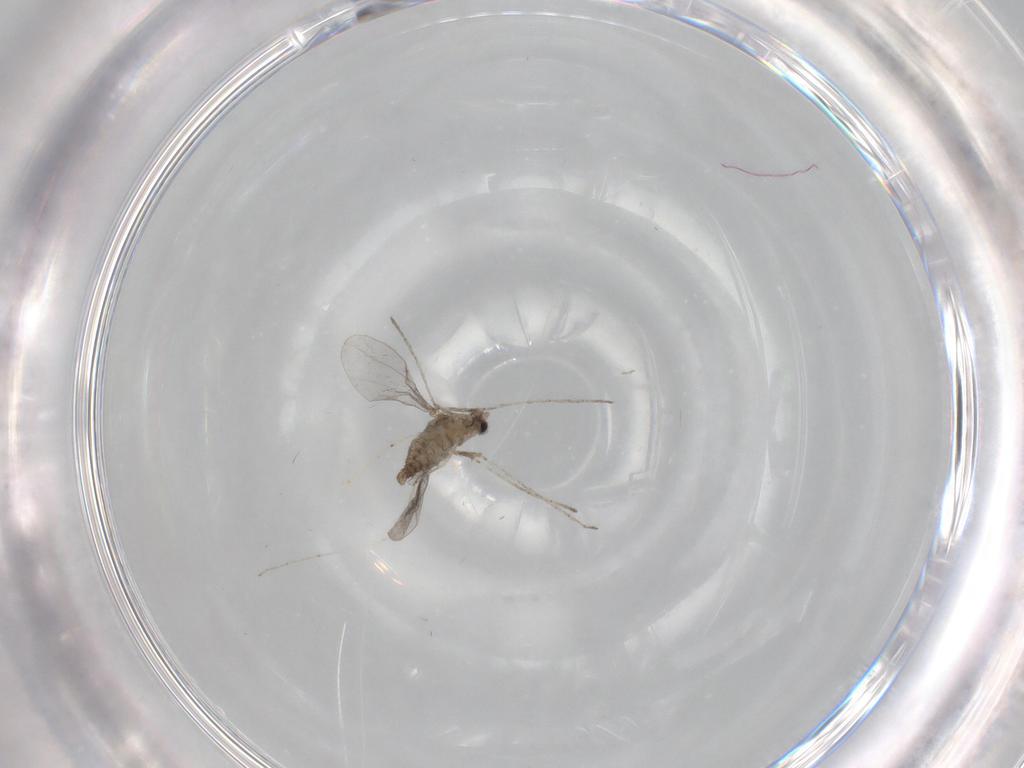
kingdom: Animalia
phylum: Arthropoda
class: Insecta
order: Diptera
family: Cecidomyiidae
